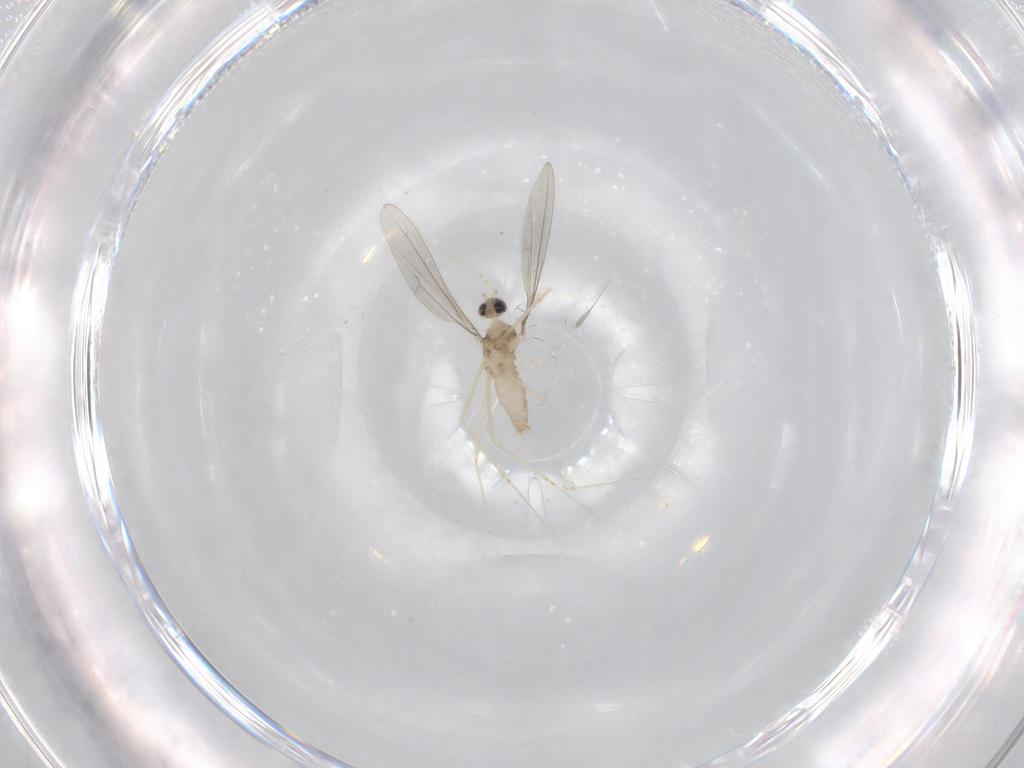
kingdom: Animalia
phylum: Arthropoda
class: Insecta
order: Diptera
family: Cecidomyiidae
